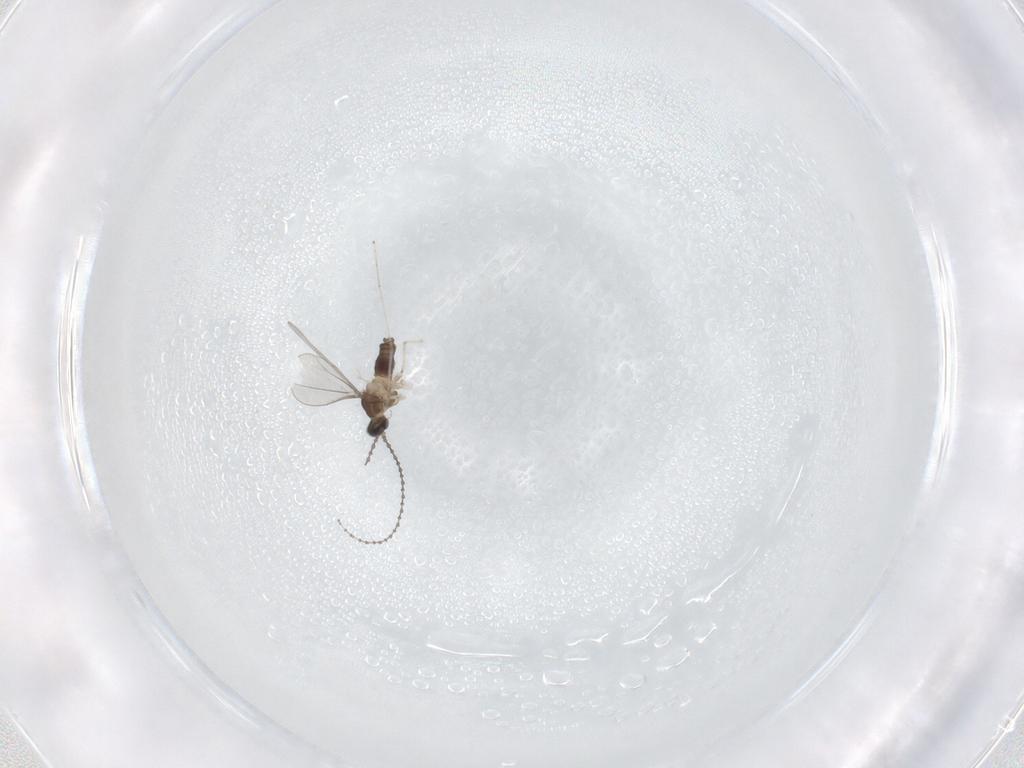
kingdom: Animalia
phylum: Arthropoda
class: Insecta
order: Diptera
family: Cecidomyiidae
